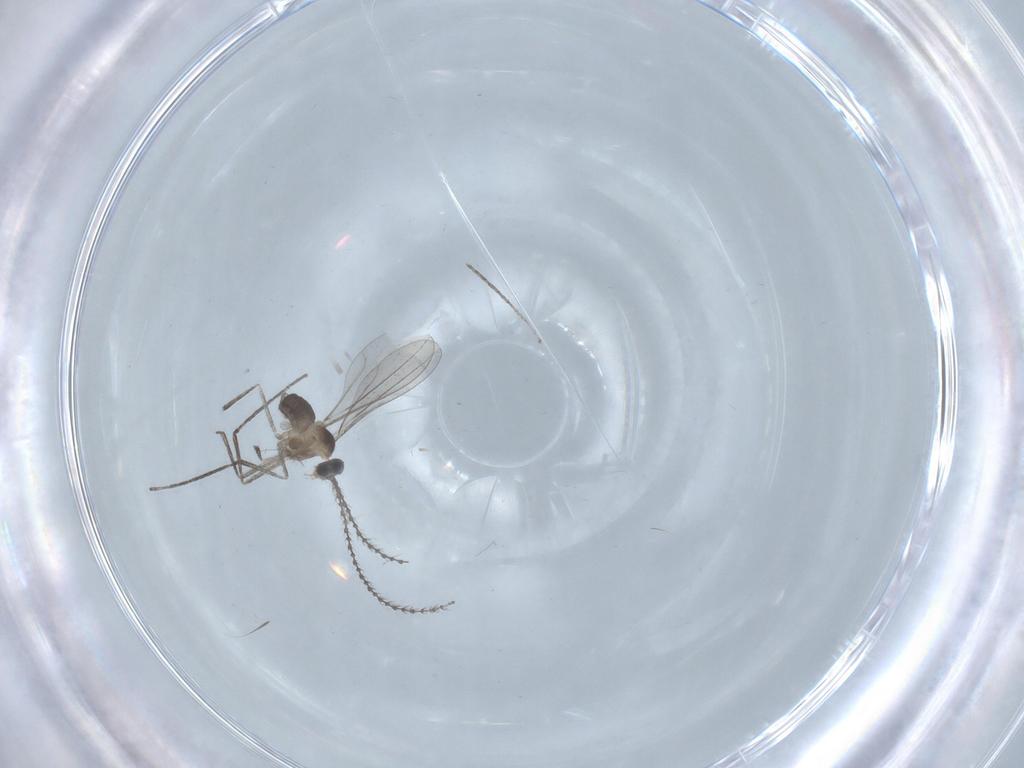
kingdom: Animalia
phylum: Arthropoda
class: Insecta
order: Diptera
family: Cecidomyiidae
